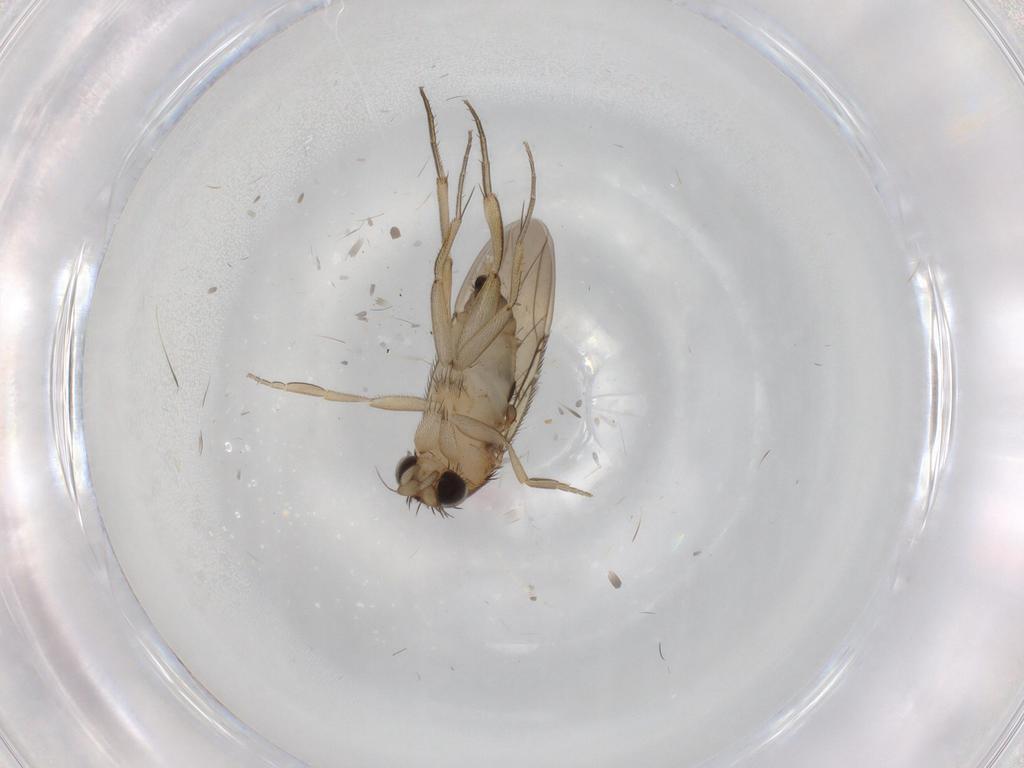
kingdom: Animalia
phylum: Arthropoda
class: Insecta
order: Diptera
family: Phoridae
